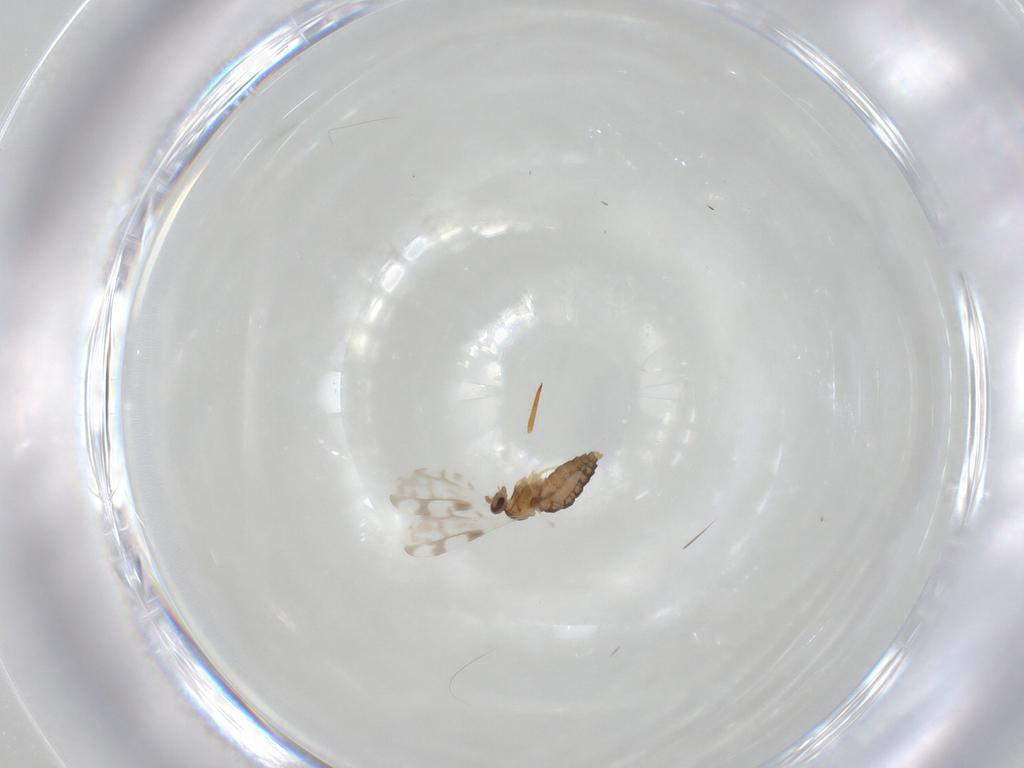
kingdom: Animalia
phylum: Arthropoda
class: Insecta
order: Diptera
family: Cecidomyiidae
